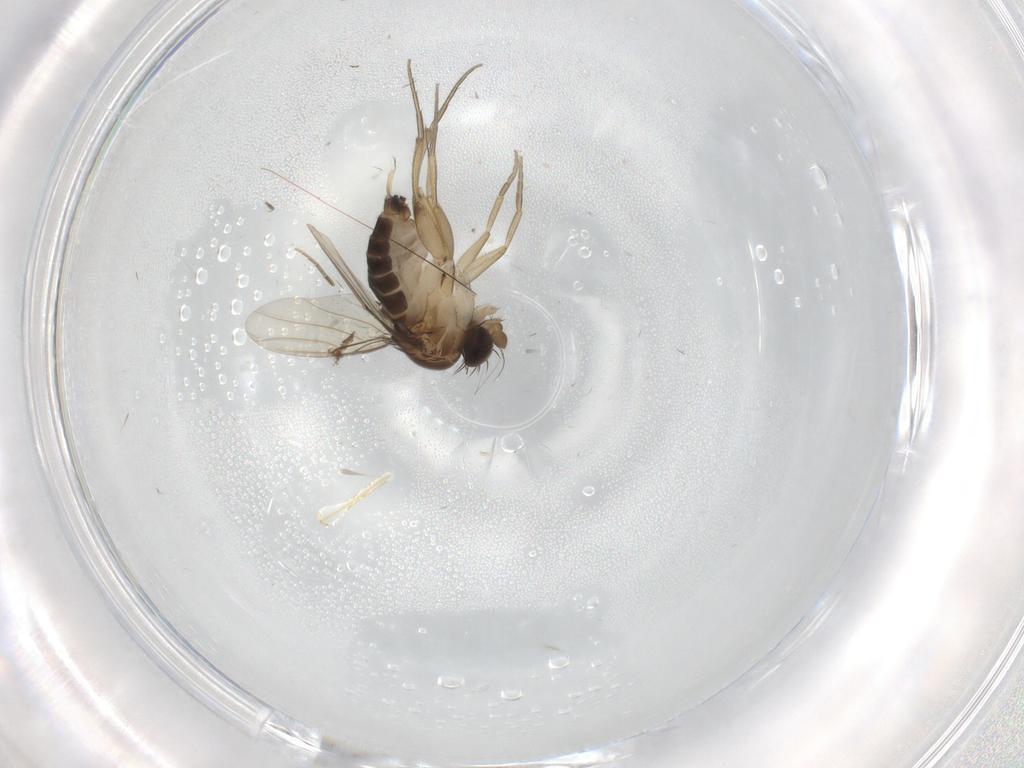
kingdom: Animalia
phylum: Arthropoda
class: Insecta
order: Diptera
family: Phoridae
